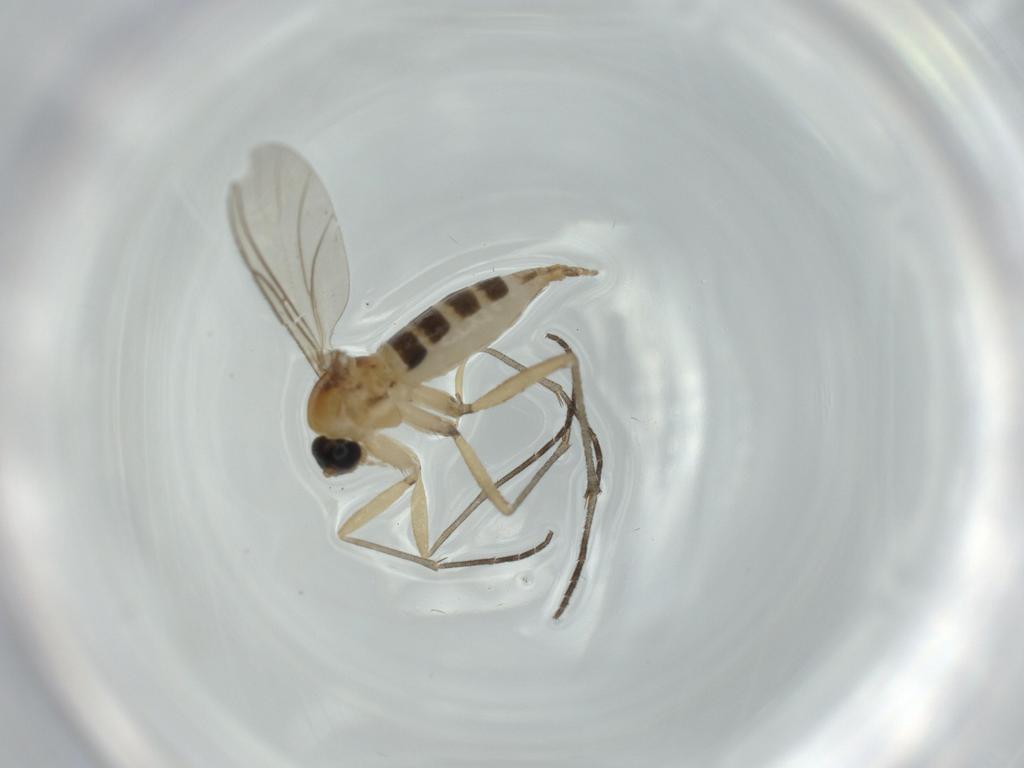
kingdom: Animalia
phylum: Arthropoda
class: Insecta
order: Diptera
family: Sciaridae
